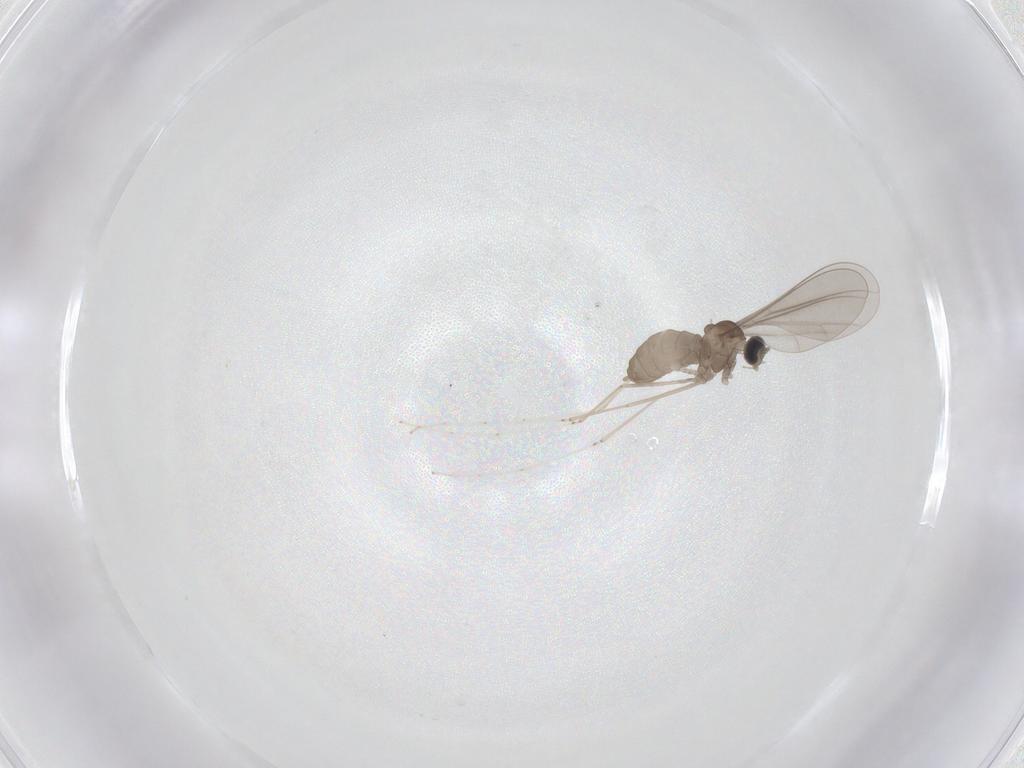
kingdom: Animalia
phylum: Arthropoda
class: Insecta
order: Diptera
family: Cecidomyiidae
